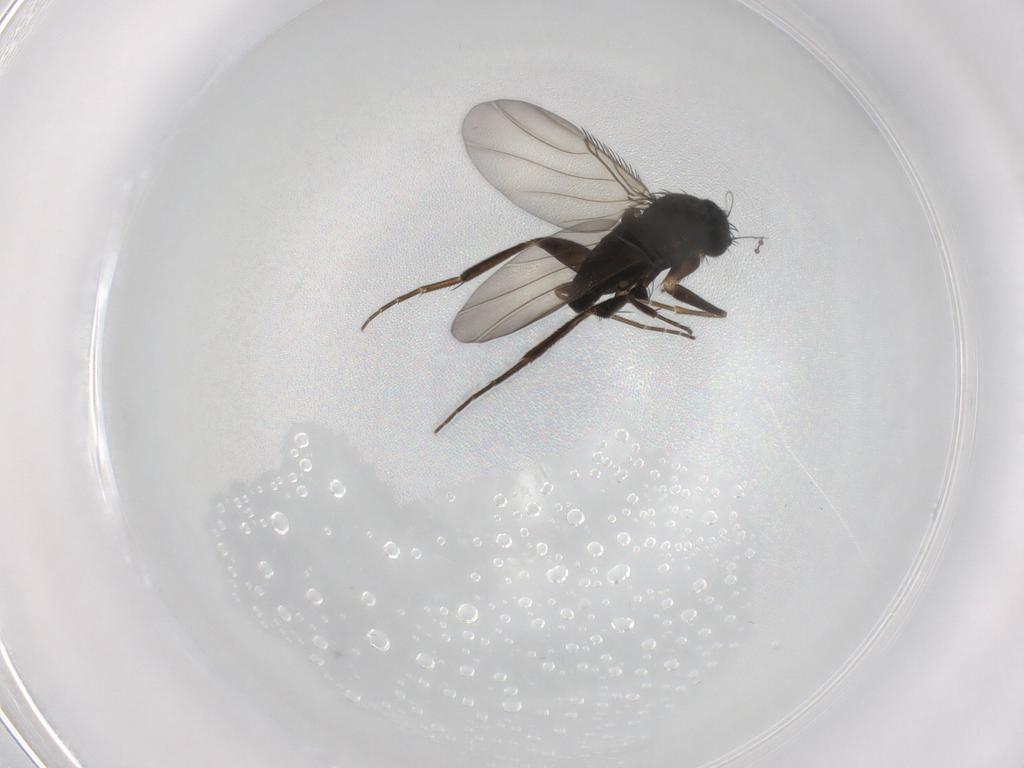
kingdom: Animalia
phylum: Arthropoda
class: Insecta
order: Diptera
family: Phoridae
